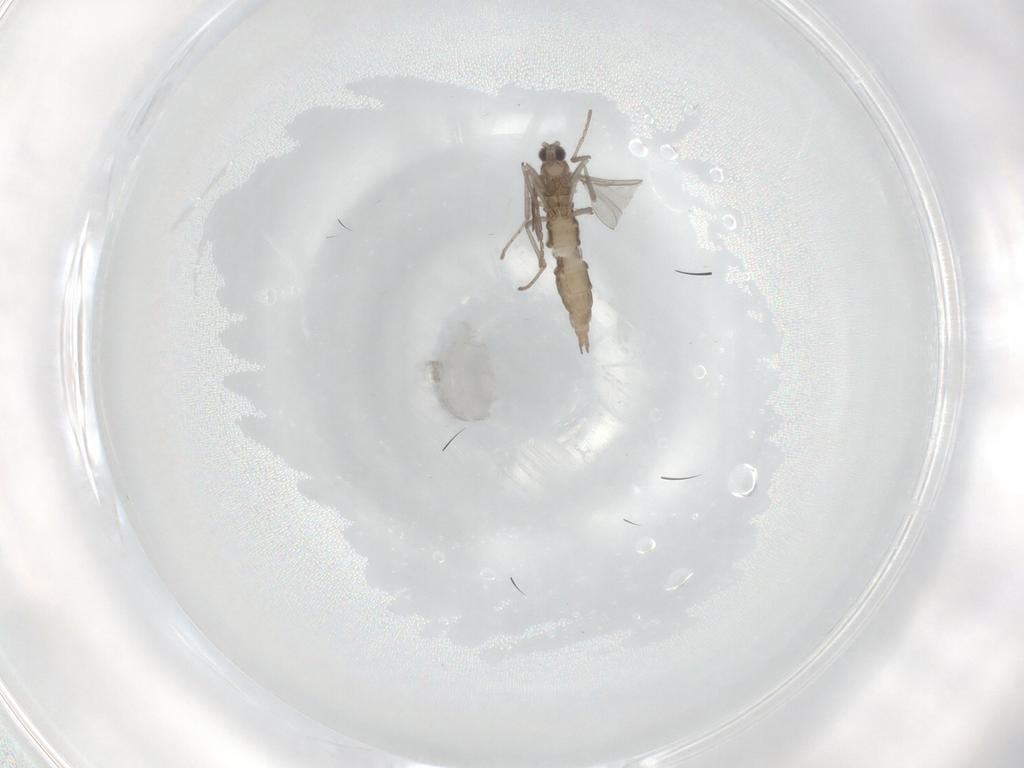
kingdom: Animalia
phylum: Arthropoda
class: Insecta
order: Diptera
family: Cecidomyiidae
